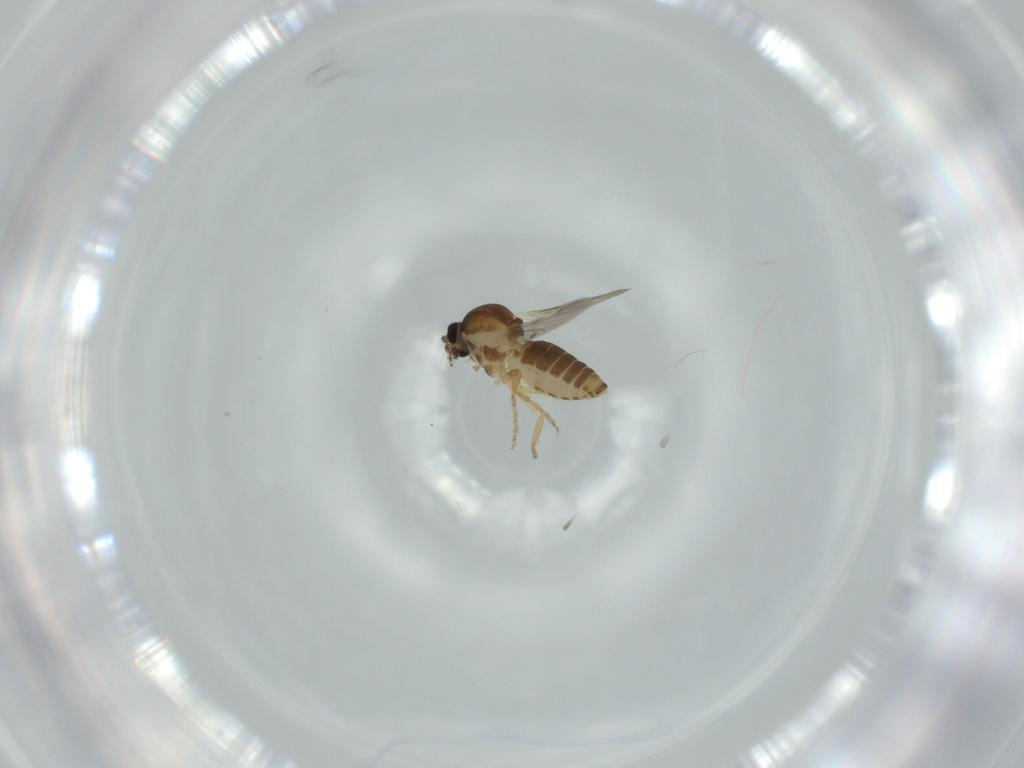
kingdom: Animalia
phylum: Arthropoda
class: Insecta
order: Diptera
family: Ceratopogonidae
